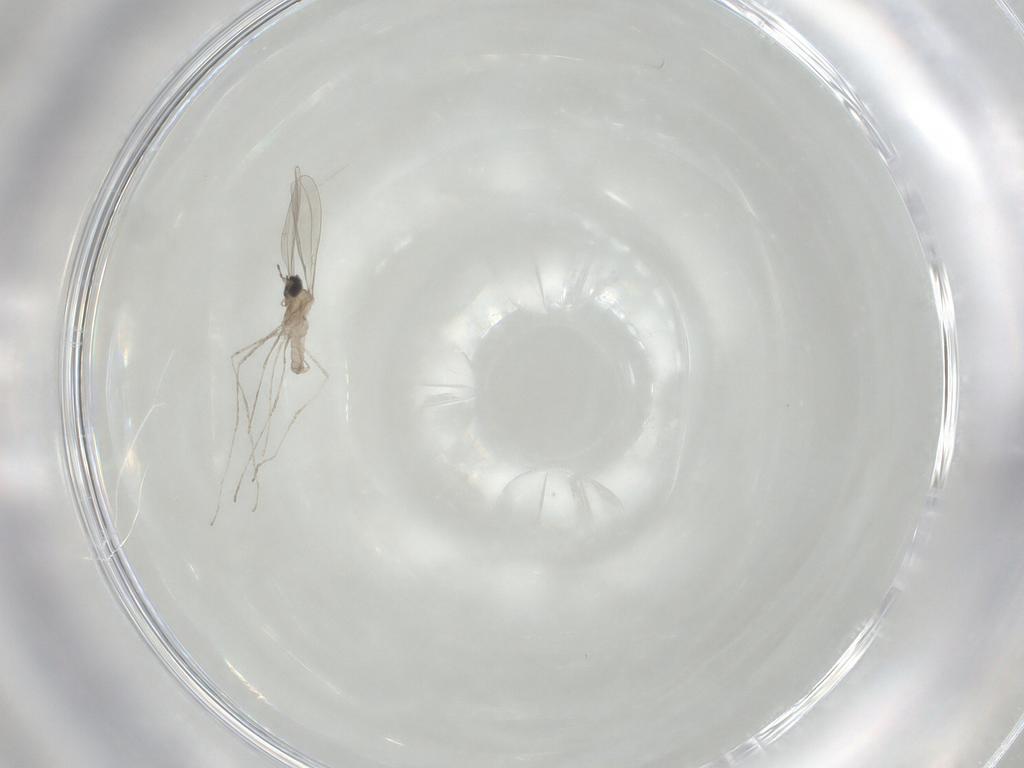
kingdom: Animalia
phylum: Arthropoda
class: Insecta
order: Diptera
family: Cecidomyiidae
